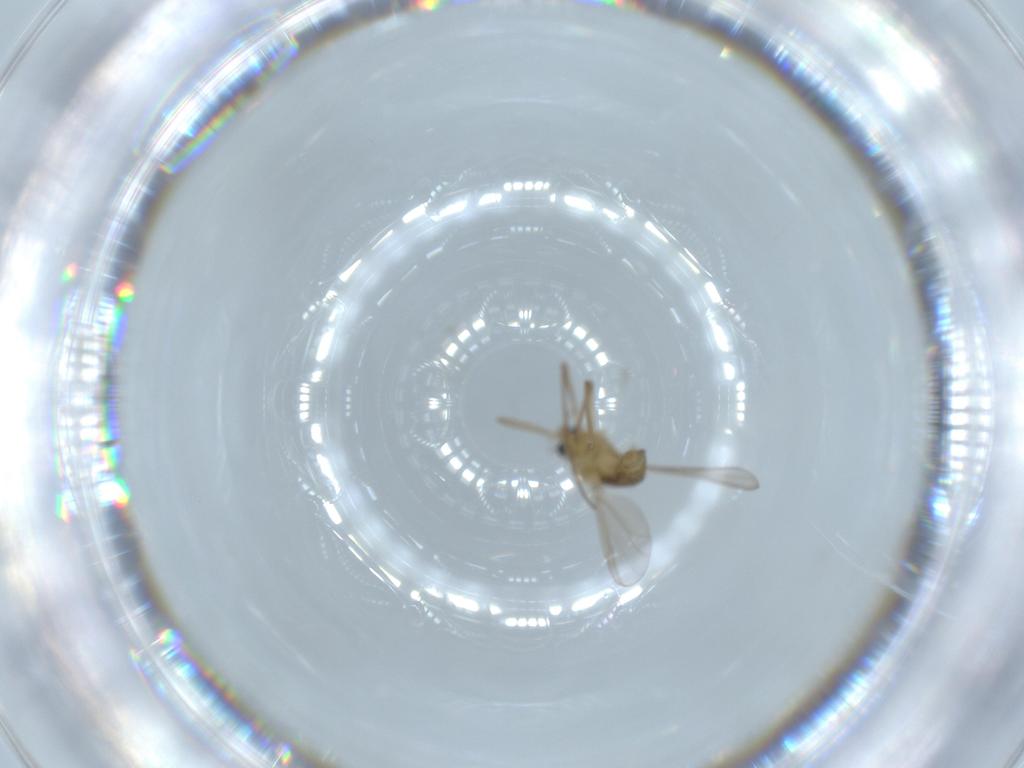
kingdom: Animalia
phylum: Arthropoda
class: Insecta
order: Diptera
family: Chironomidae
